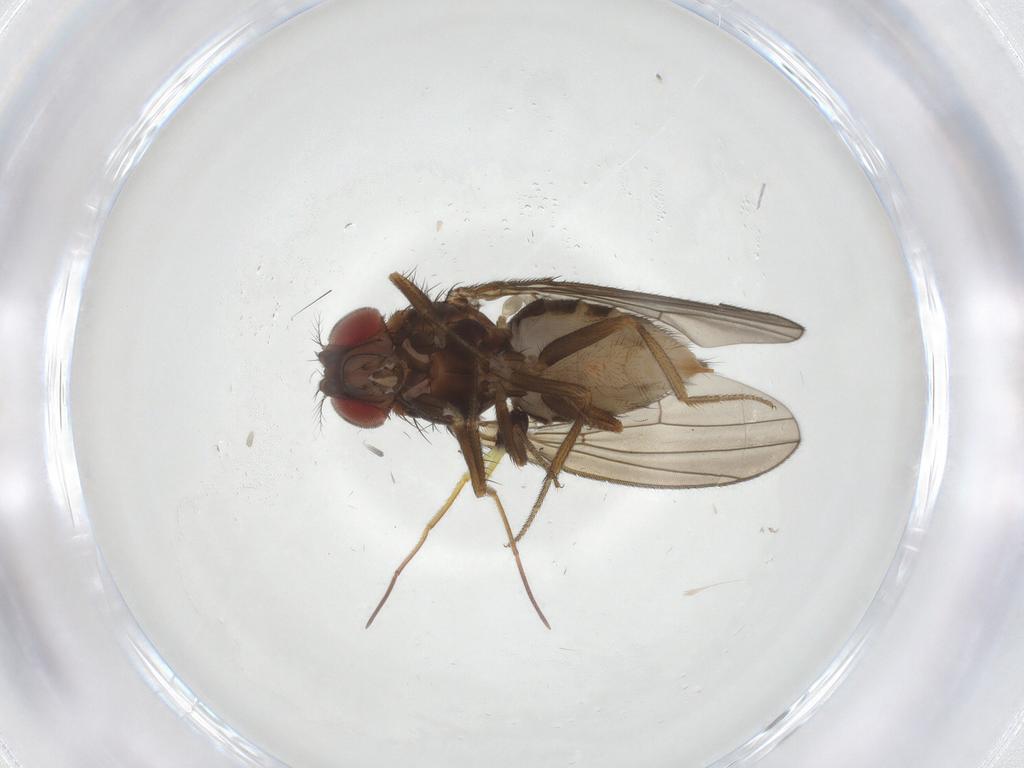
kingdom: Animalia
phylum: Arthropoda
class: Insecta
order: Diptera
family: Drosophilidae
